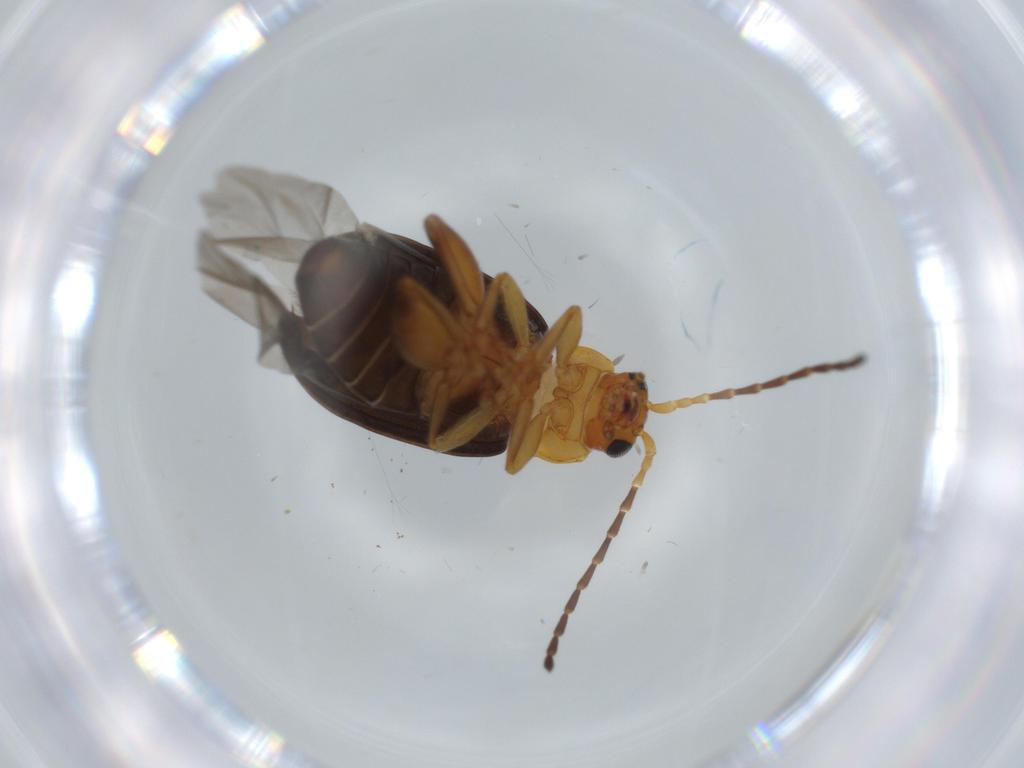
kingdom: Animalia
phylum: Arthropoda
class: Insecta
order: Coleoptera
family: Chrysomelidae
